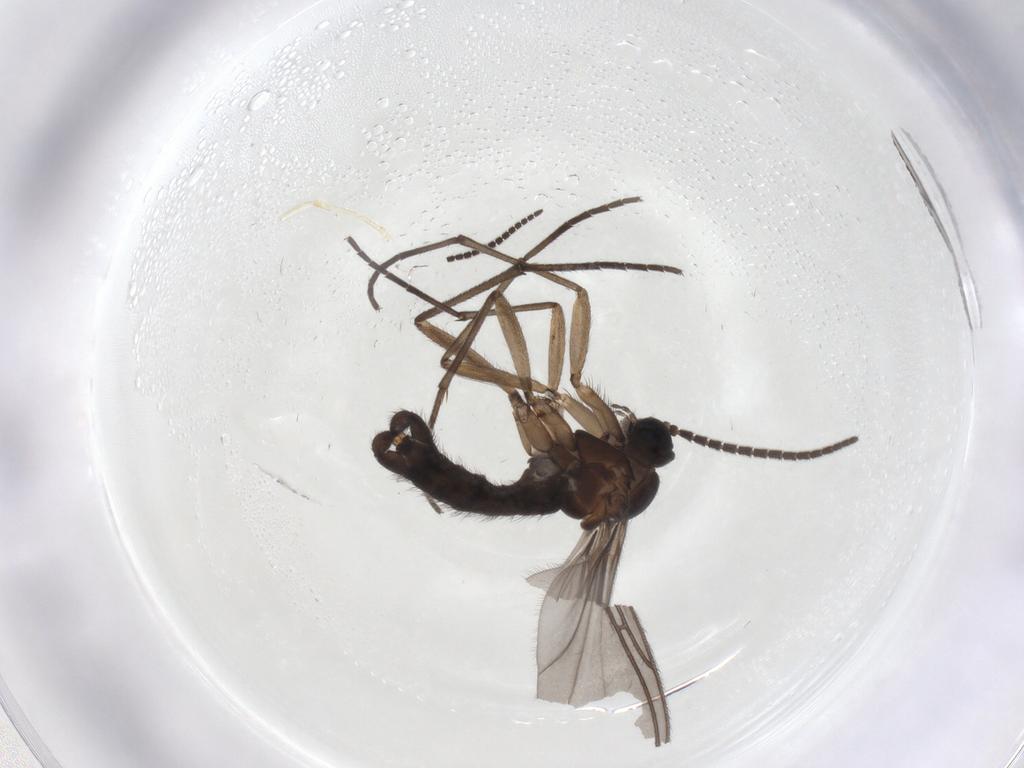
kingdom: Animalia
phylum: Arthropoda
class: Insecta
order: Diptera
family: Sciaridae
